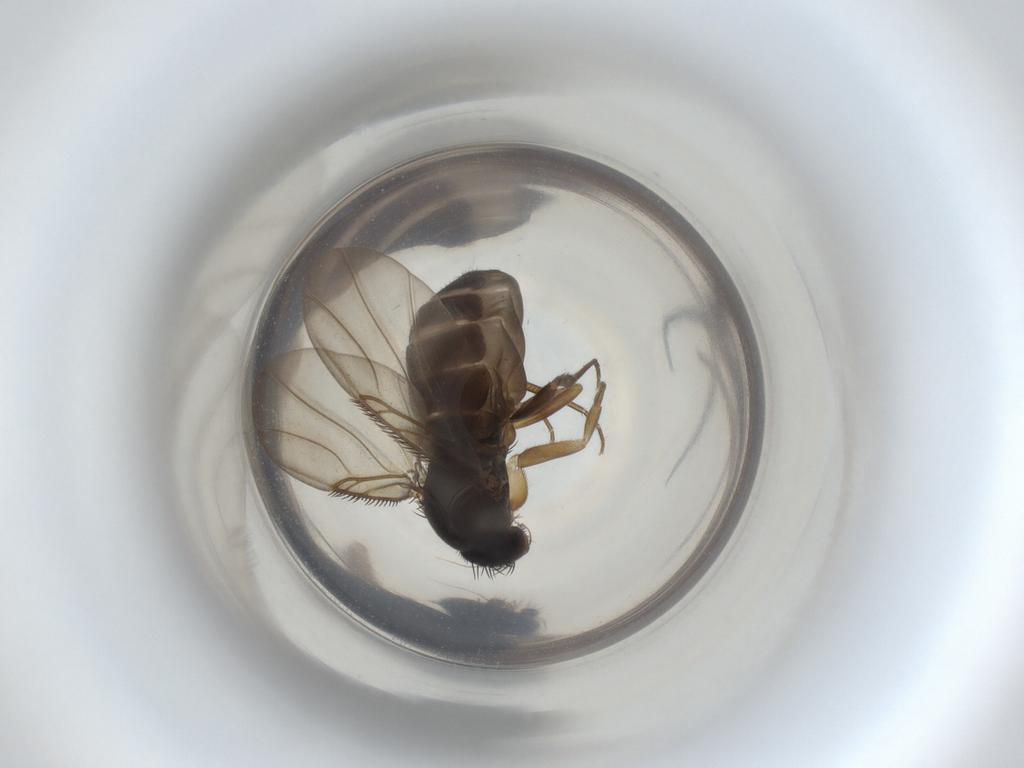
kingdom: Animalia
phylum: Arthropoda
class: Insecta
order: Diptera
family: Phoridae
